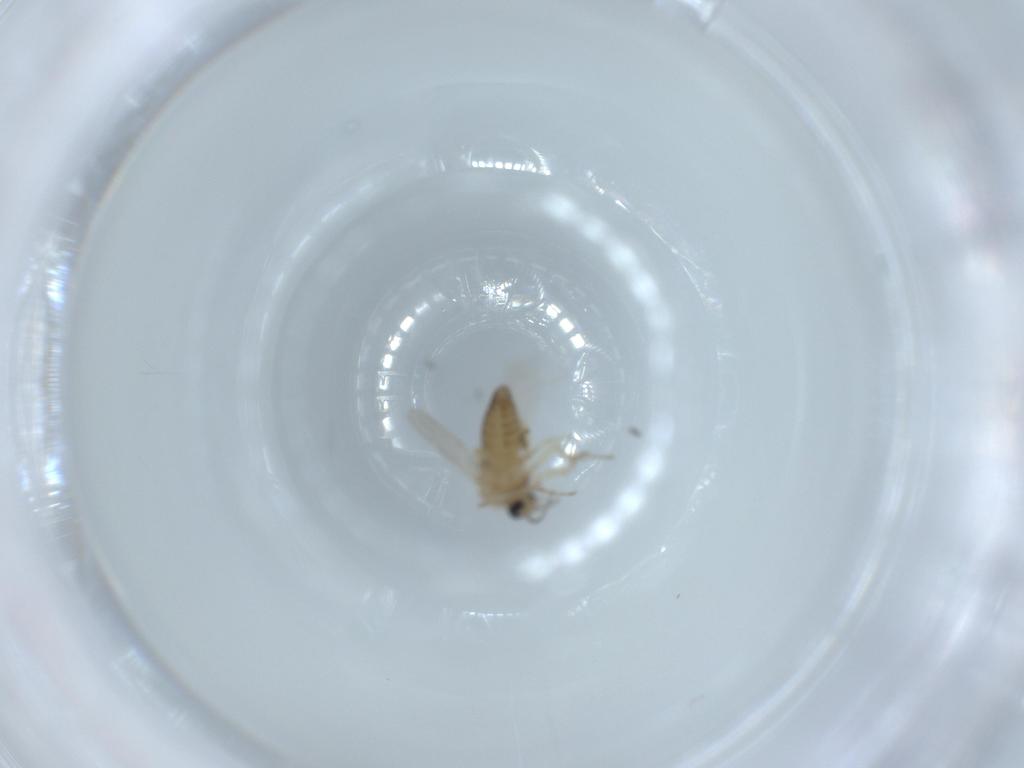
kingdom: Animalia
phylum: Arthropoda
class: Insecta
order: Diptera
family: Ceratopogonidae
